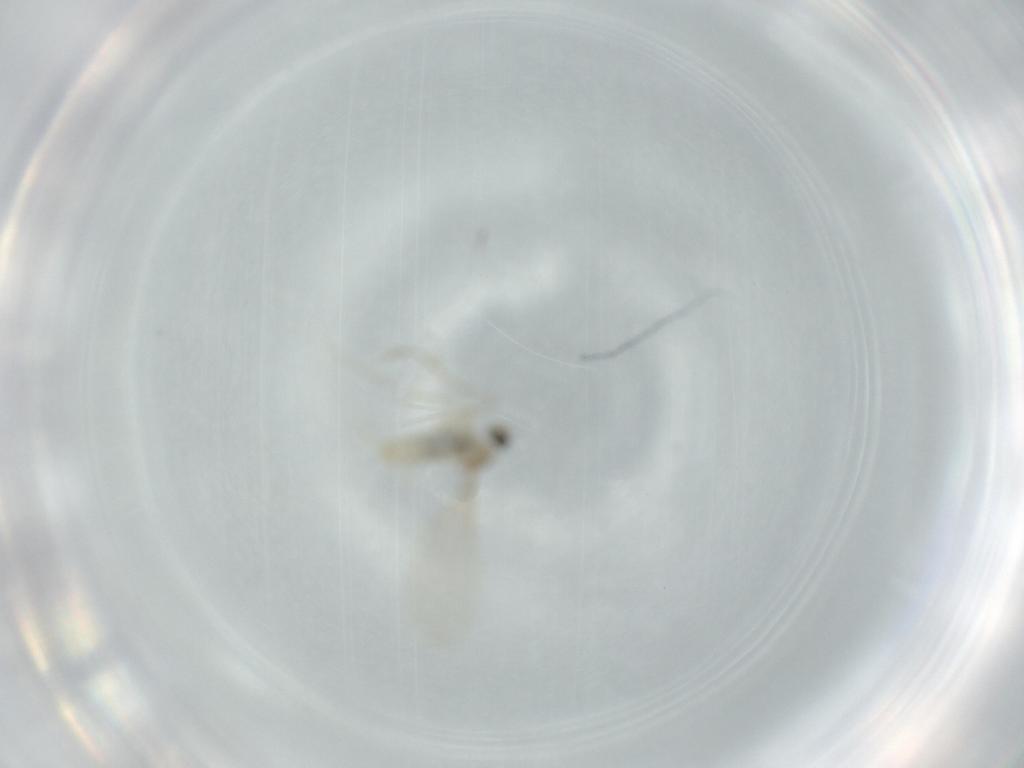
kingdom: Animalia
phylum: Arthropoda
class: Insecta
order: Diptera
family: Cecidomyiidae
